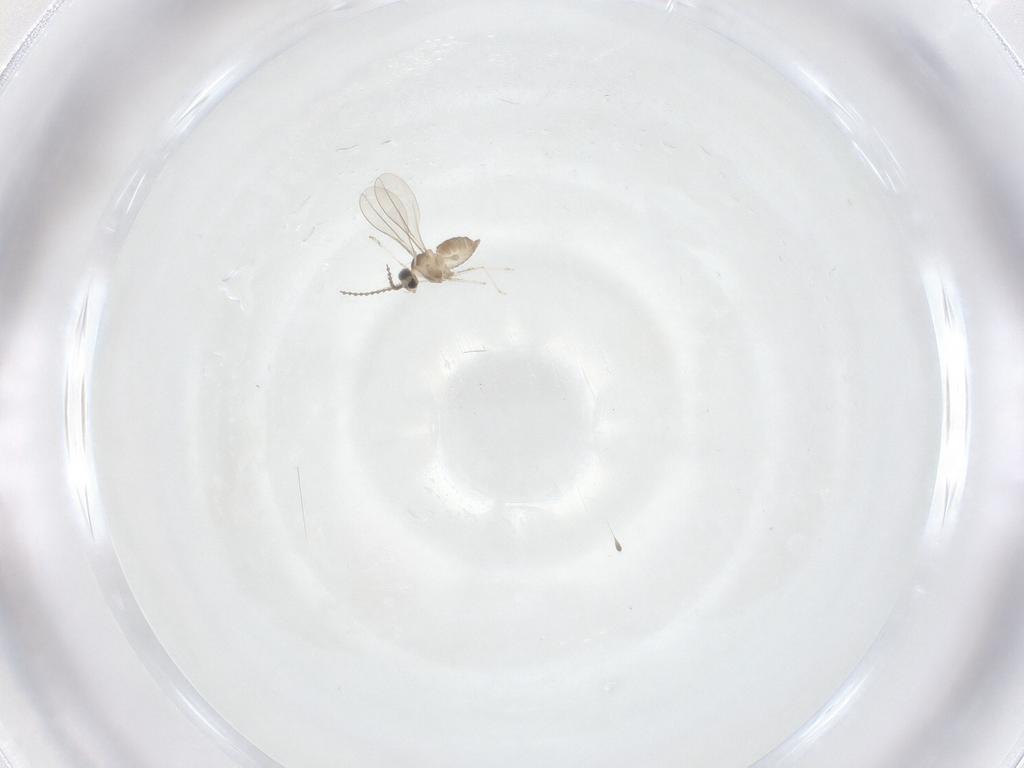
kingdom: Animalia
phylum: Arthropoda
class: Insecta
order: Diptera
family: Cecidomyiidae
